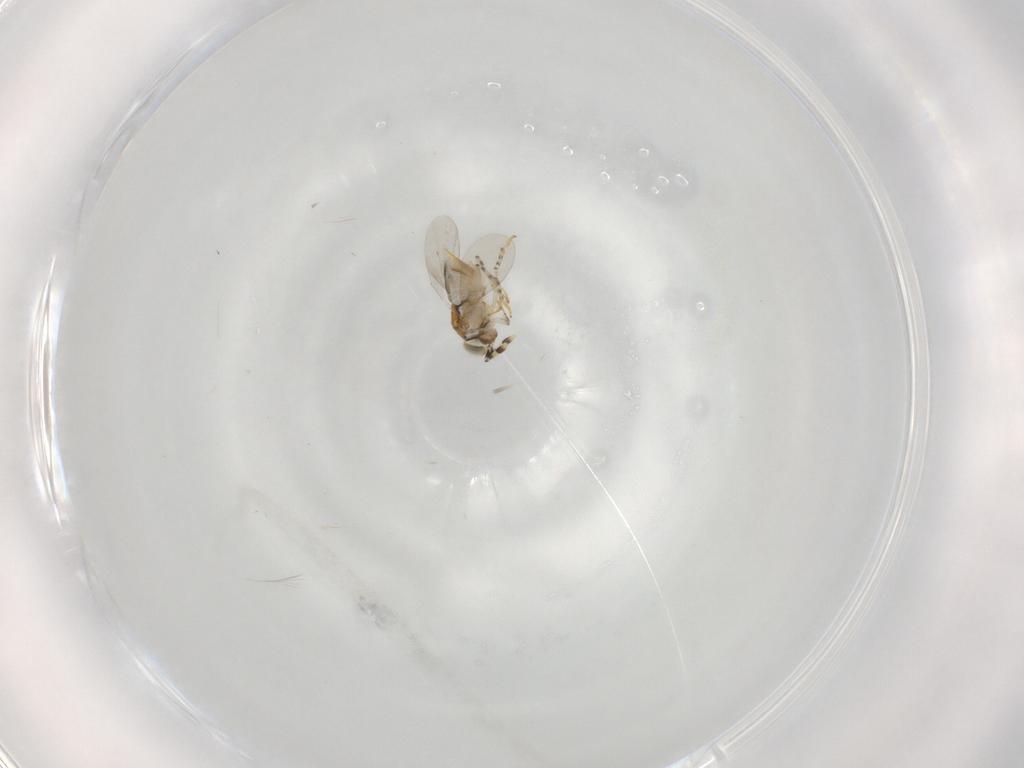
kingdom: Animalia
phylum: Arthropoda
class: Insecta
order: Hymenoptera
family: Encyrtidae
